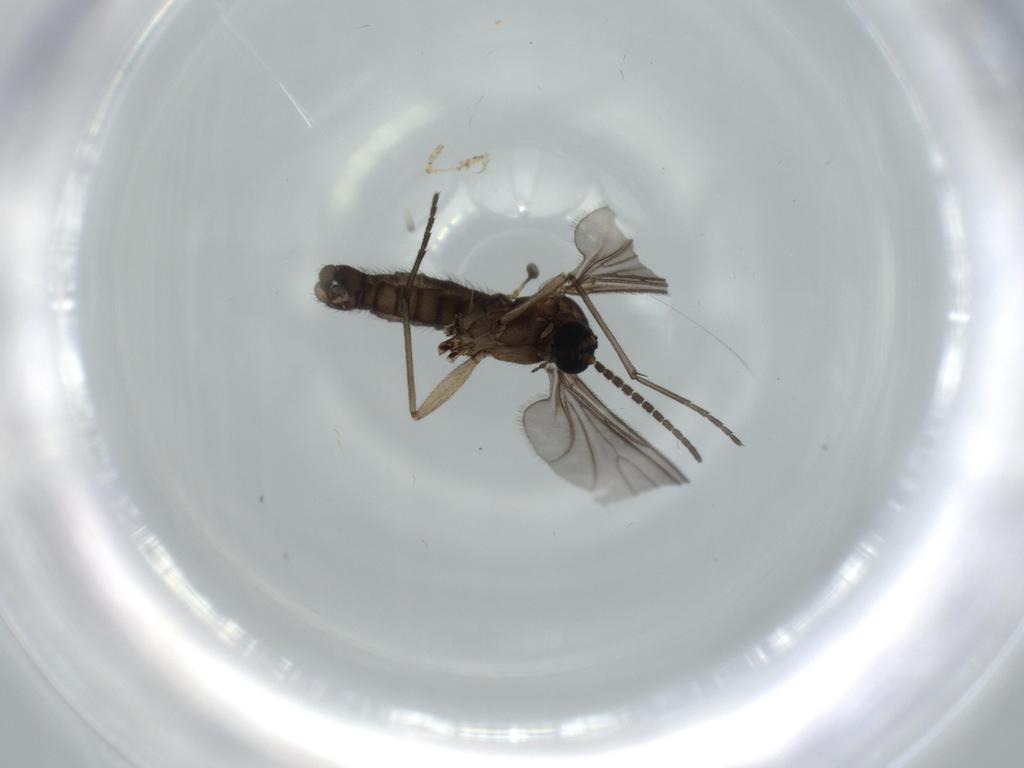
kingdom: Animalia
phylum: Arthropoda
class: Insecta
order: Diptera
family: Sciaridae
